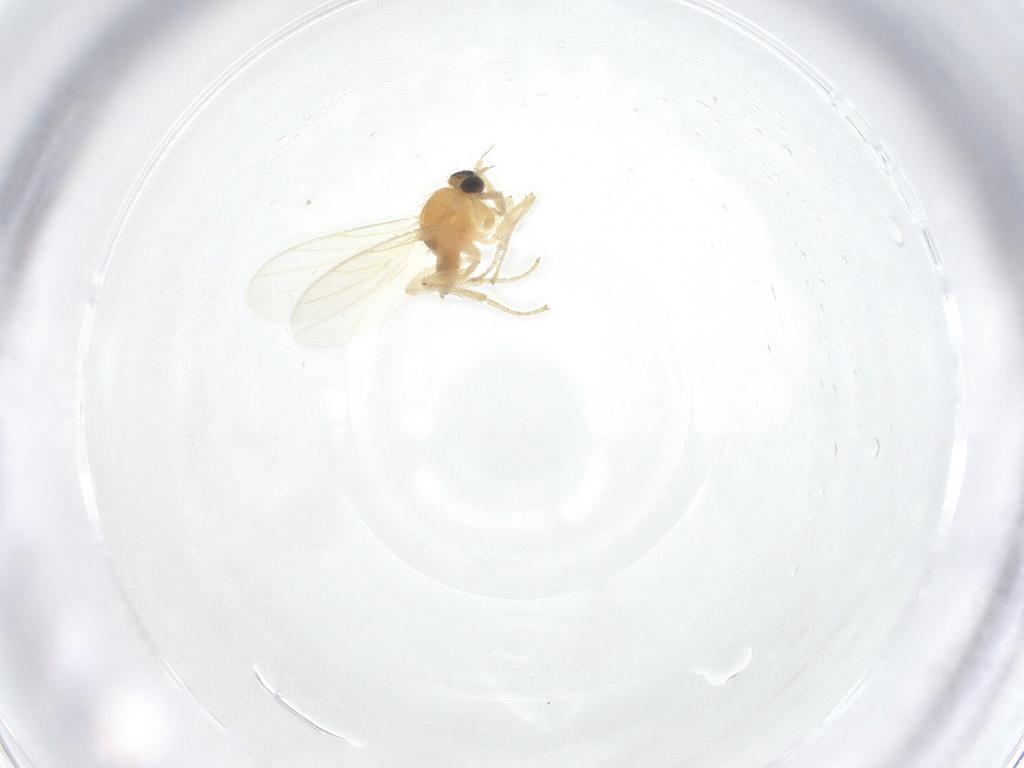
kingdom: Animalia
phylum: Arthropoda
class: Insecta
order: Diptera
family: Hybotidae
